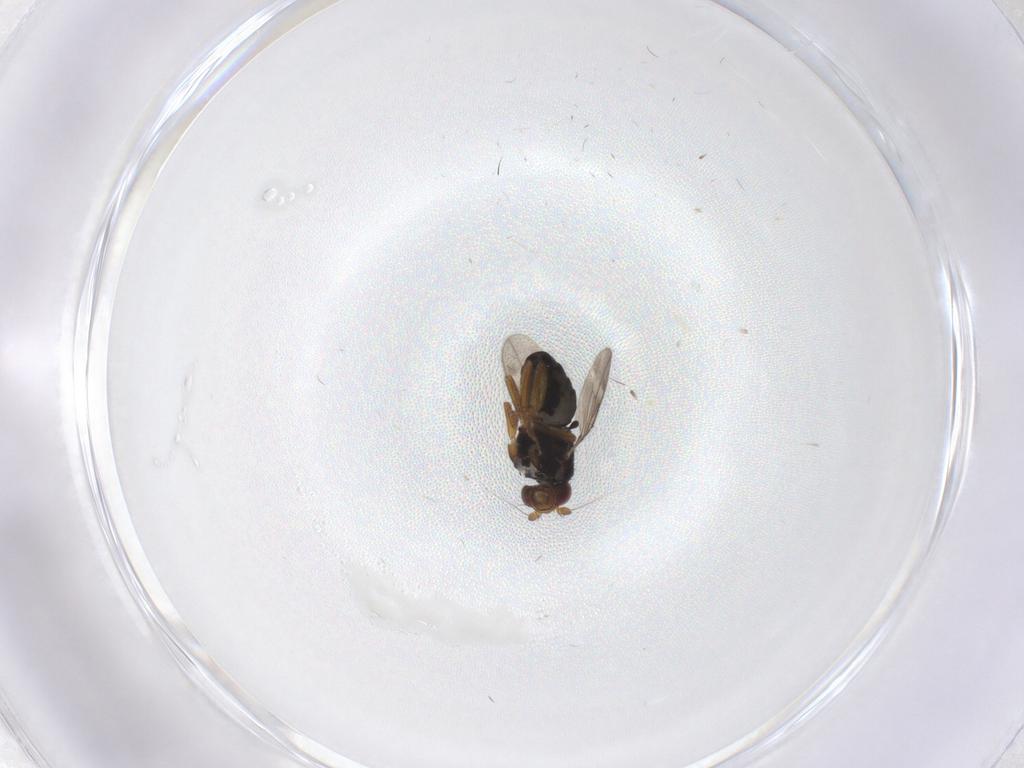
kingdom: Animalia
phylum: Arthropoda
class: Insecta
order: Diptera
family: Sphaeroceridae
